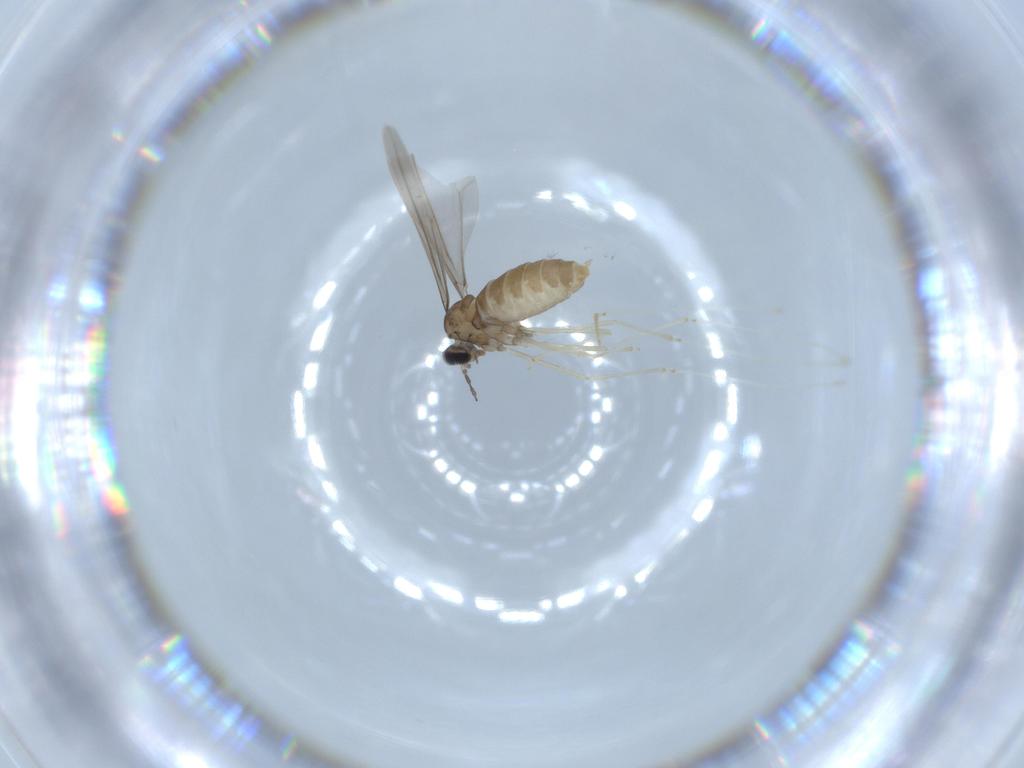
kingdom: Animalia
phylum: Arthropoda
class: Insecta
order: Diptera
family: Cecidomyiidae
